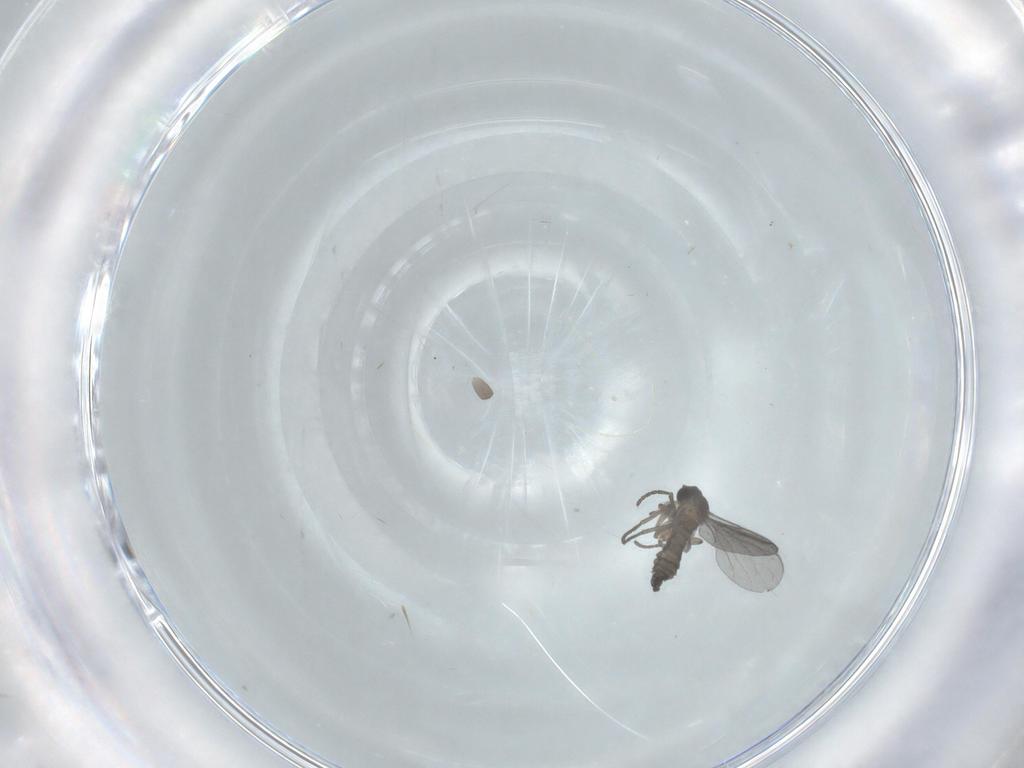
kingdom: Animalia
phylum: Arthropoda
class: Insecta
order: Diptera
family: Cecidomyiidae
